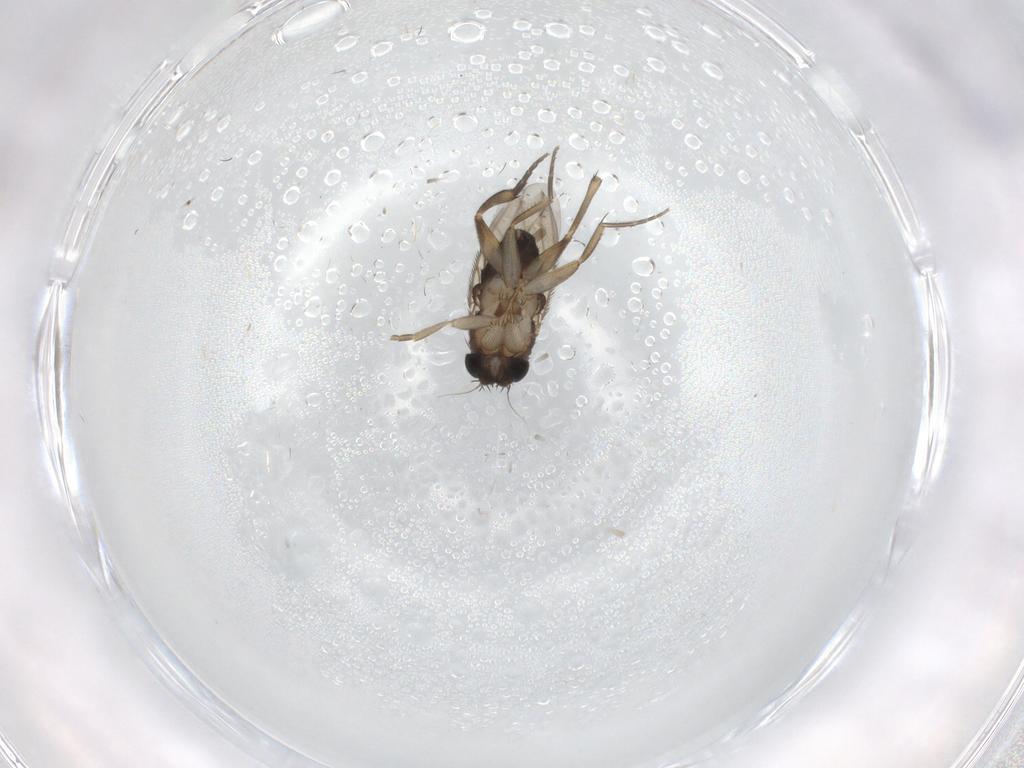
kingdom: Animalia
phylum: Arthropoda
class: Insecta
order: Diptera
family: Phoridae
